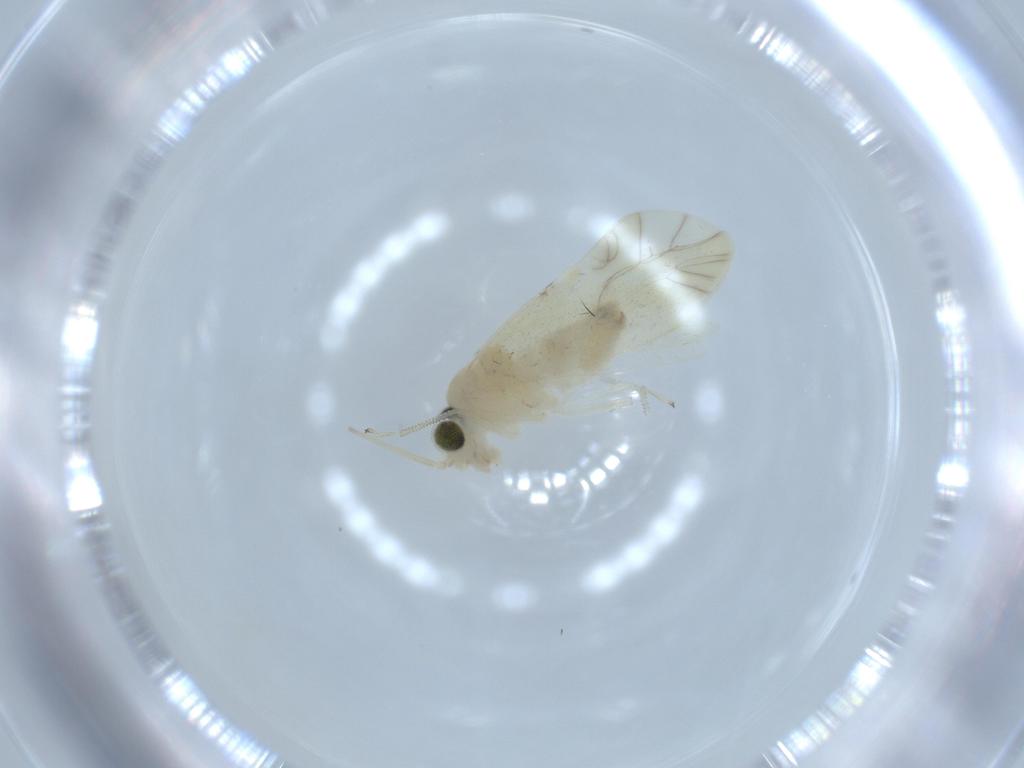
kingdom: Animalia
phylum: Arthropoda
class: Insecta
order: Psocodea
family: Caeciliusidae
